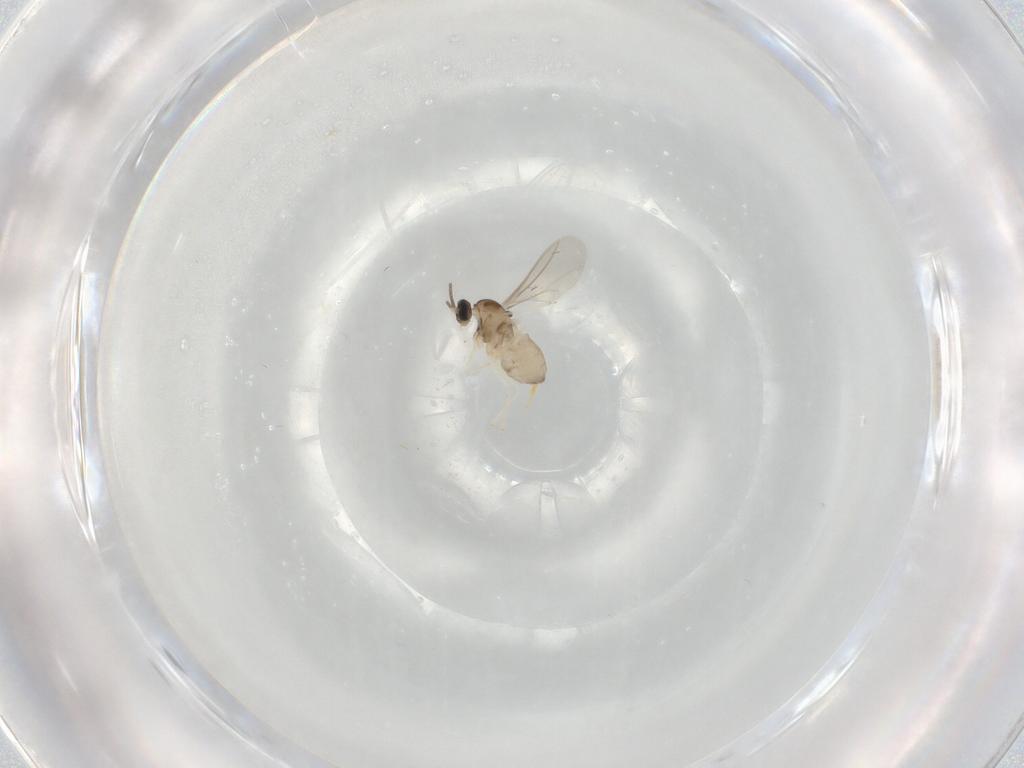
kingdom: Animalia
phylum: Arthropoda
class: Insecta
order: Diptera
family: Cecidomyiidae
